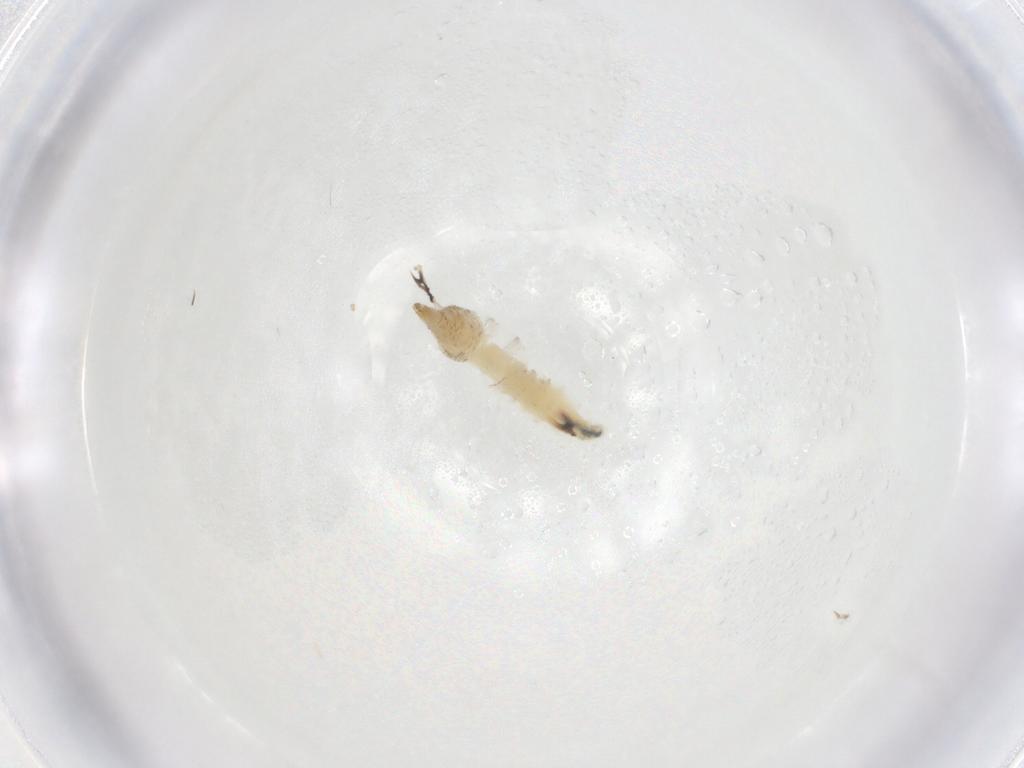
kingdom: Animalia
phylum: Arthropoda
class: Insecta
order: Diptera
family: Drosophilidae
